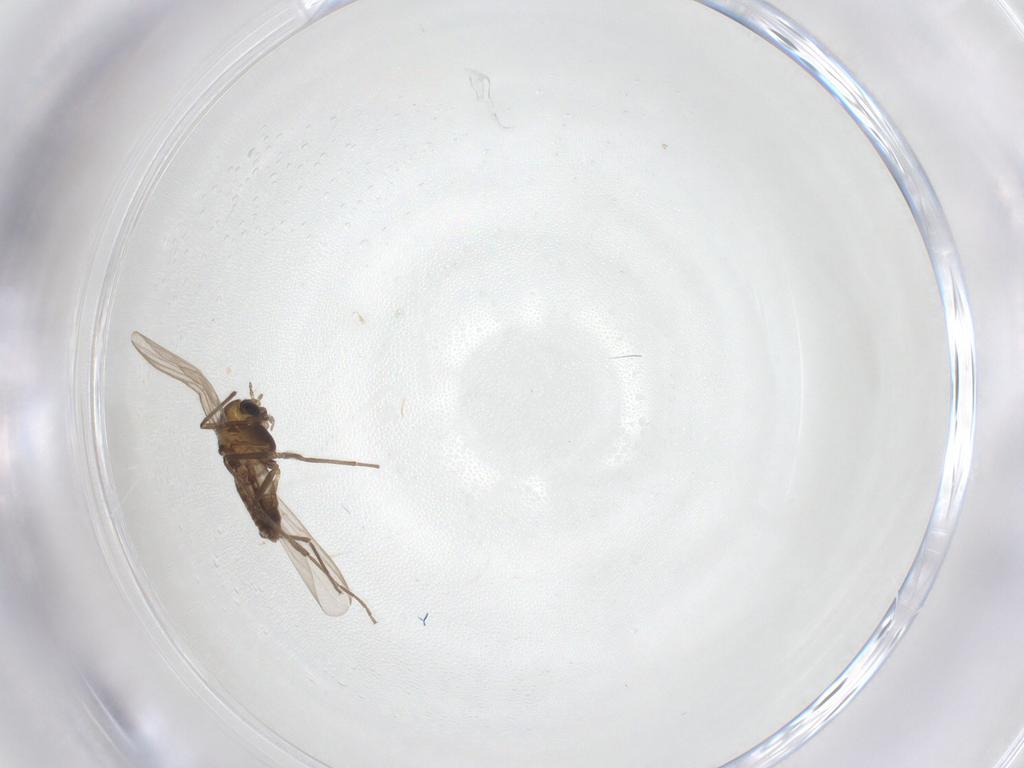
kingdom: Animalia
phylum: Arthropoda
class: Insecta
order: Diptera
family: Chironomidae
